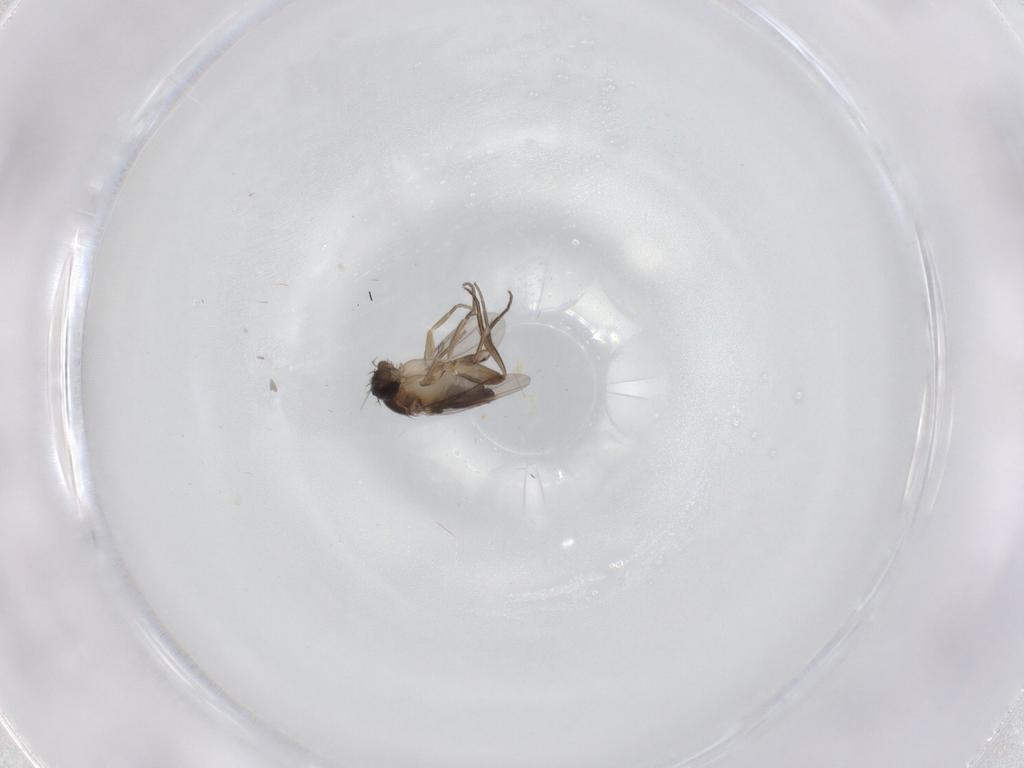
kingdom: Animalia
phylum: Arthropoda
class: Insecta
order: Diptera
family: Phoridae
